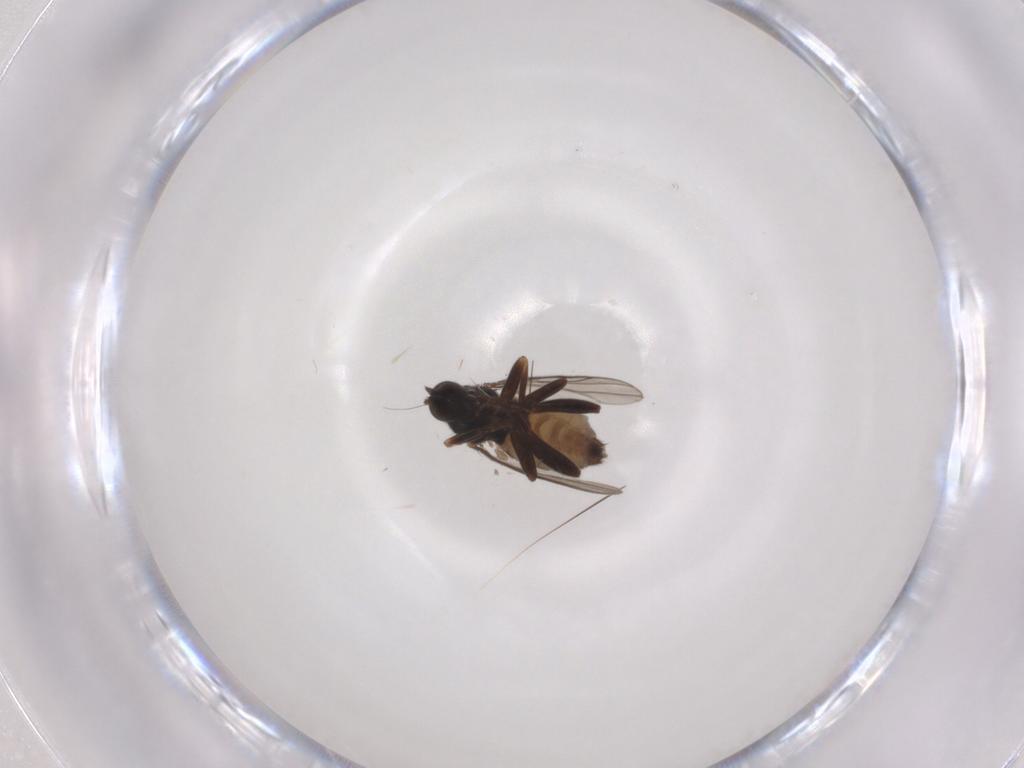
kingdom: Animalia
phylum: Arthropoda
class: Insecta
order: Diptera
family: Hybotidae
